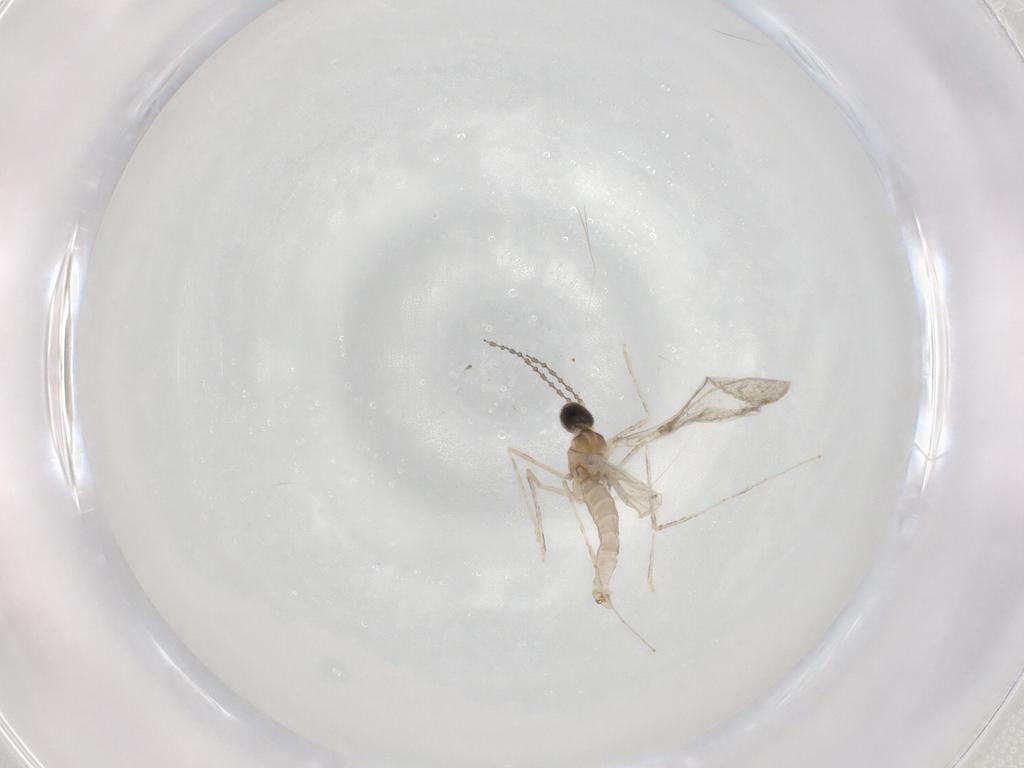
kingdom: Animalia
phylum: Arthropoda
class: Insecta
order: Diptera
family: Cecidomyiidae
